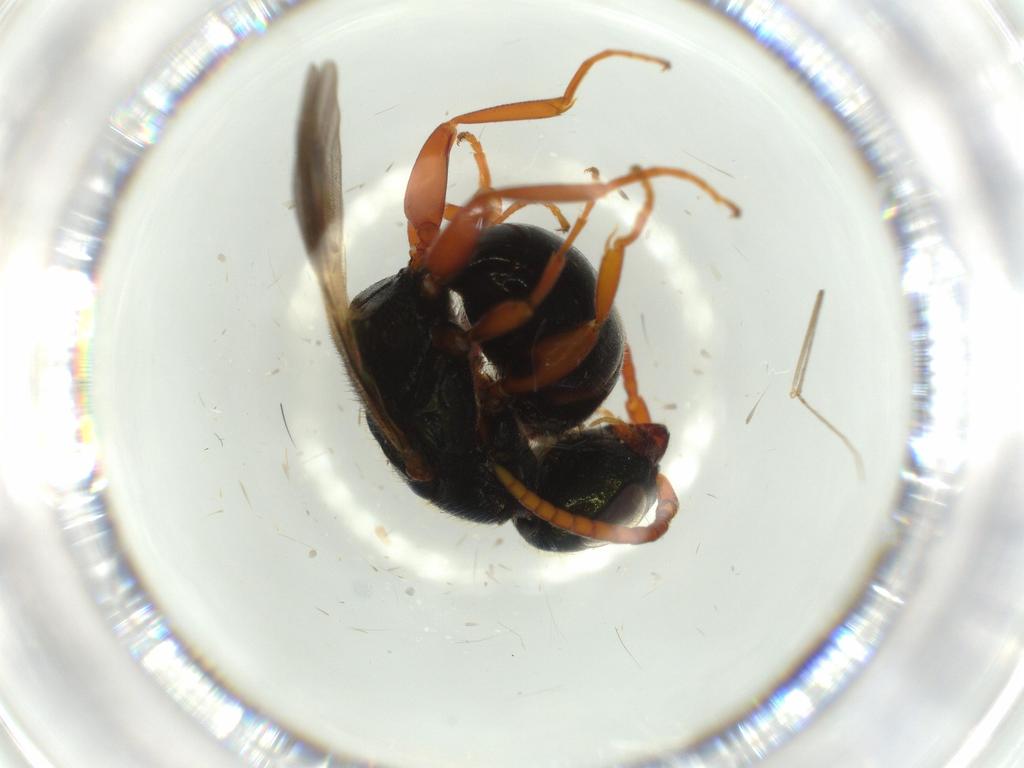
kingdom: Animalia
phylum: Arthropoda
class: Insecta
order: Hymenoptera
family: Bethylidae
